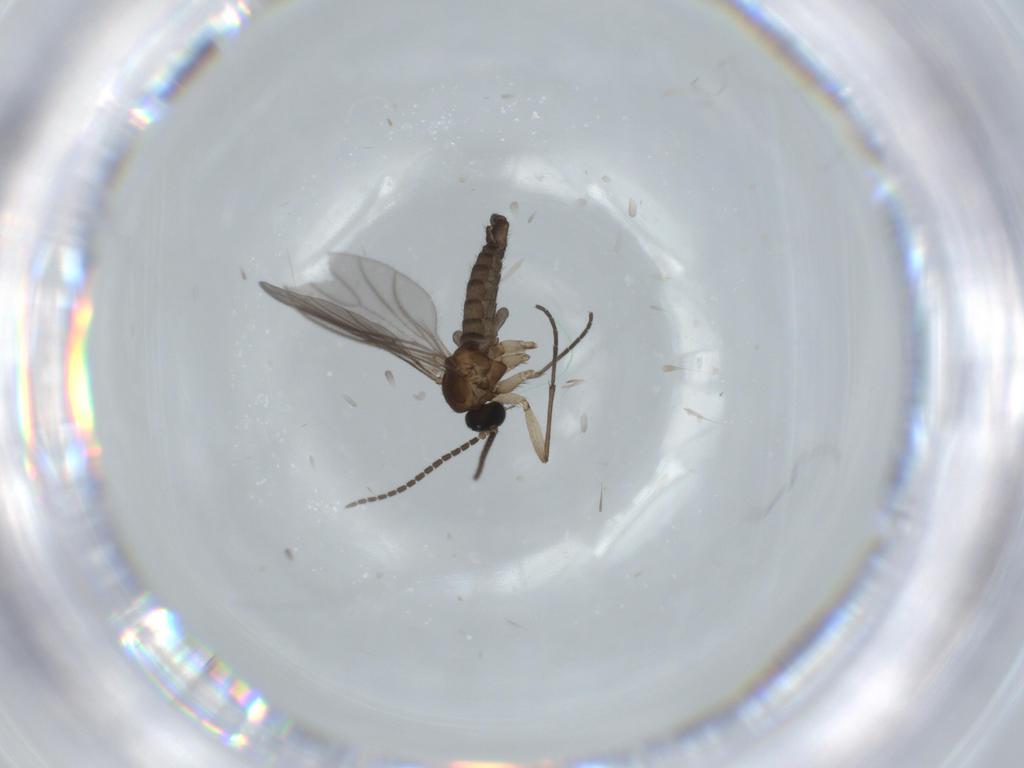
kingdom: Animalia
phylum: Arthropoda
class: Insecta
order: Diptera
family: Sciaridae
